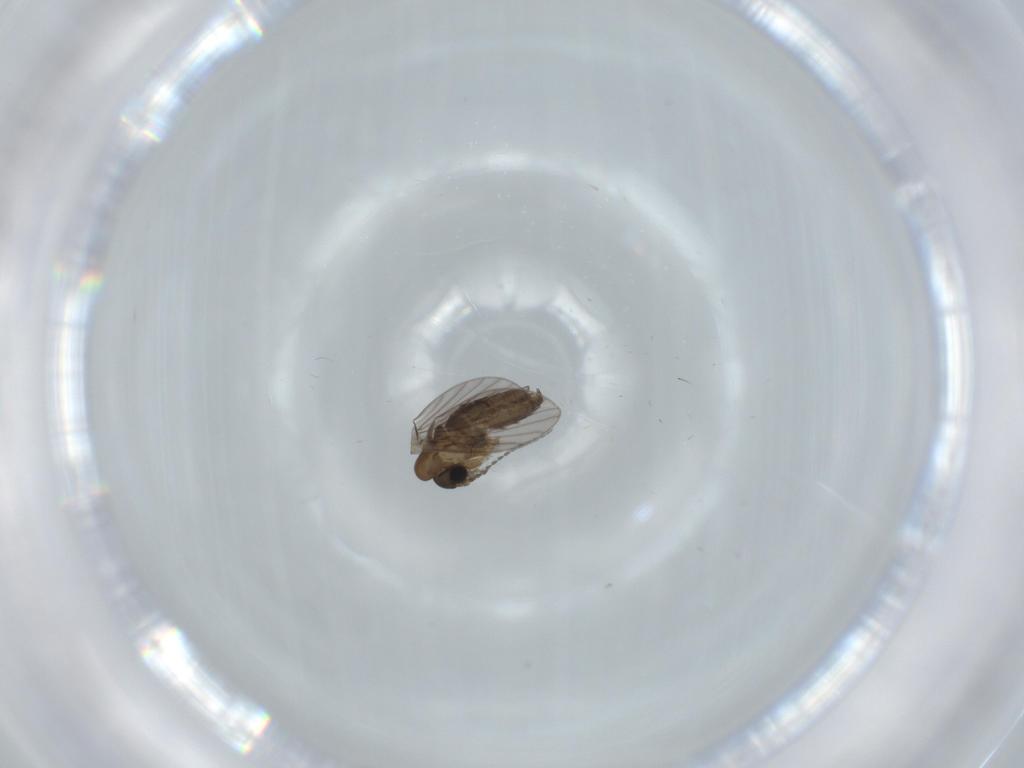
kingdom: Animalia
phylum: Arthropoda
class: Insecta
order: Diptera
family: Psychodidae
